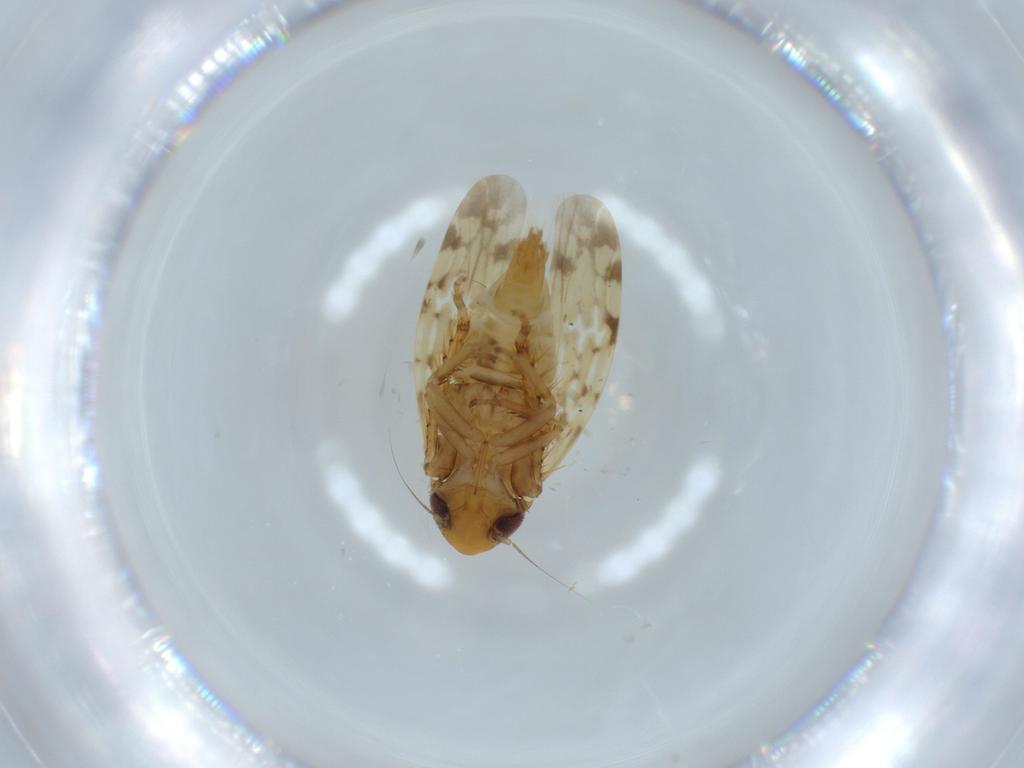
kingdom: Animalia
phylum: Arthropoda
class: Insecta
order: Hemiptera
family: Cicadellidae
